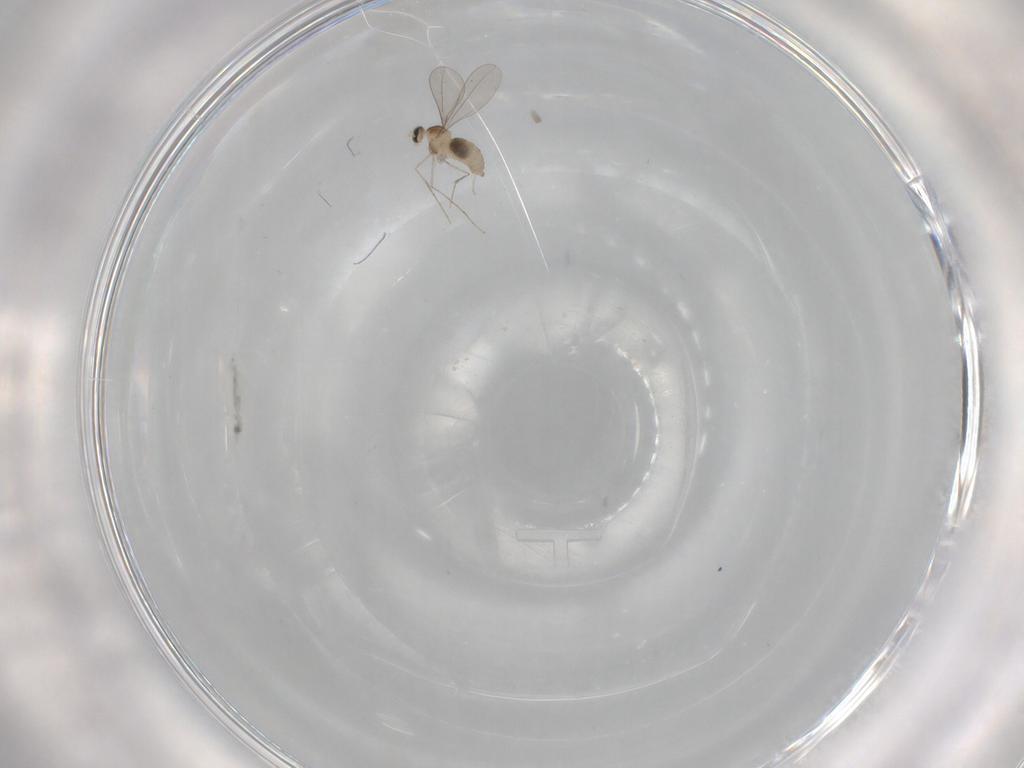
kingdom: Animalia
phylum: Arthropoda
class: Insecta
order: Diptera
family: Cecidomyiidae
